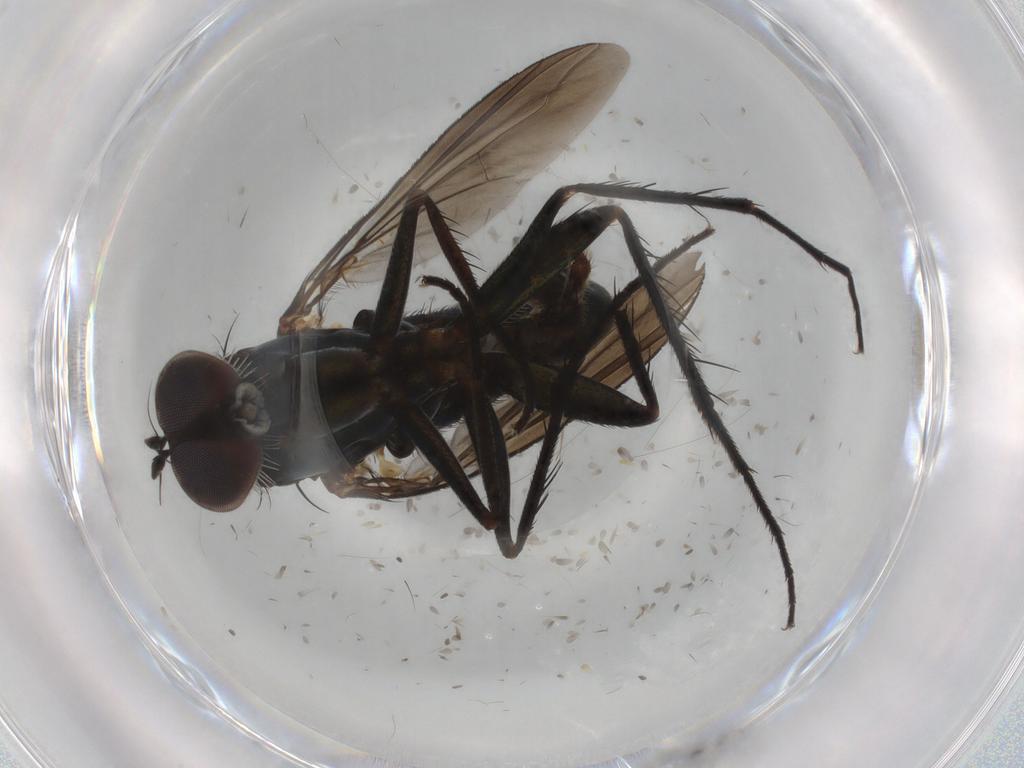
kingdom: Animalia
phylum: Arthropoda
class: Insecta
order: Diptera
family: Dolichopodidae
